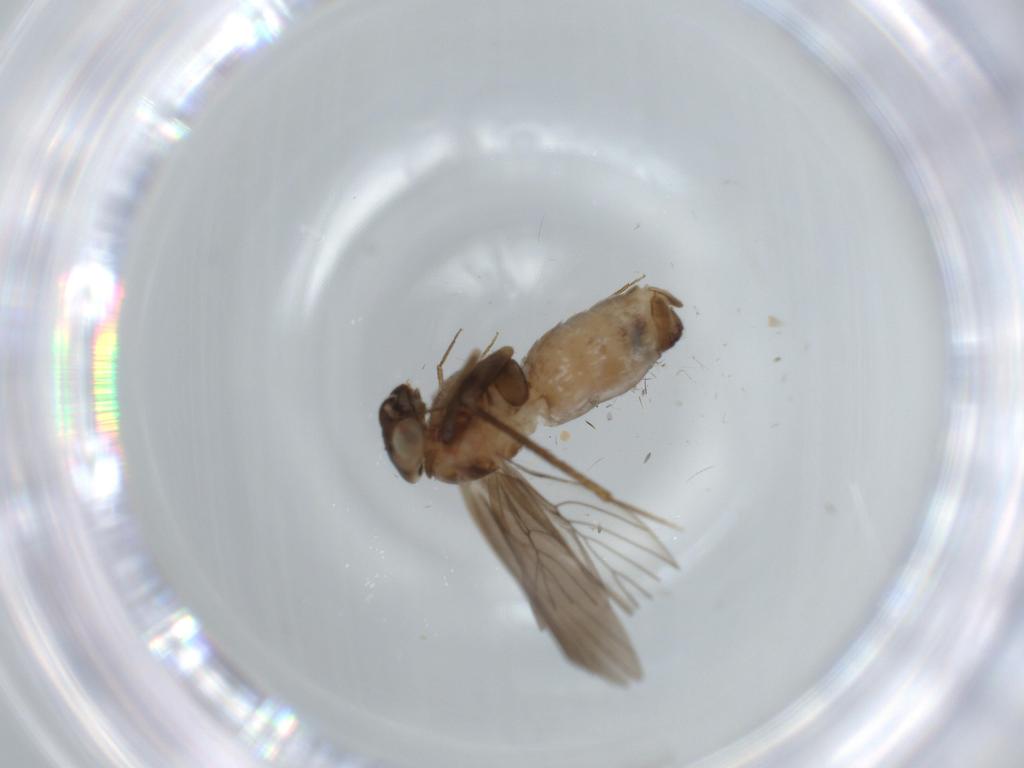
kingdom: Animalia
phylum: Arthropoda
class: Insecta
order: Psocodea
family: Lepidopsocidae
